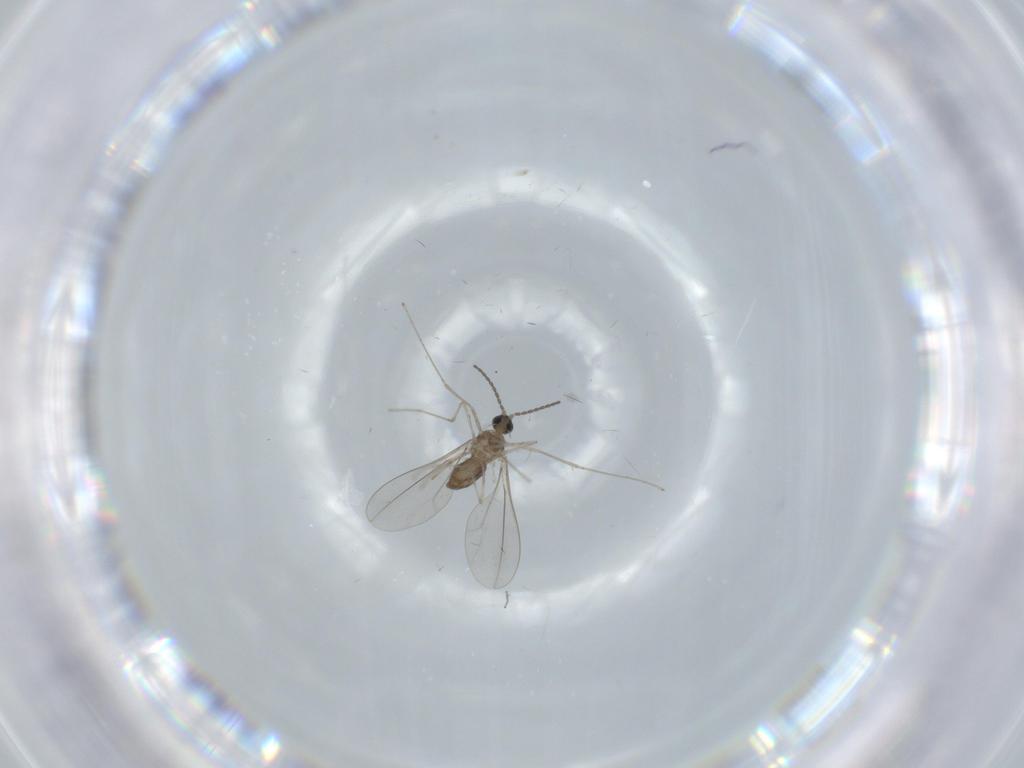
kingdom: Animalia
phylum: Arthropoda
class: Insecta
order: Diptera
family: Cecidomyiidae
